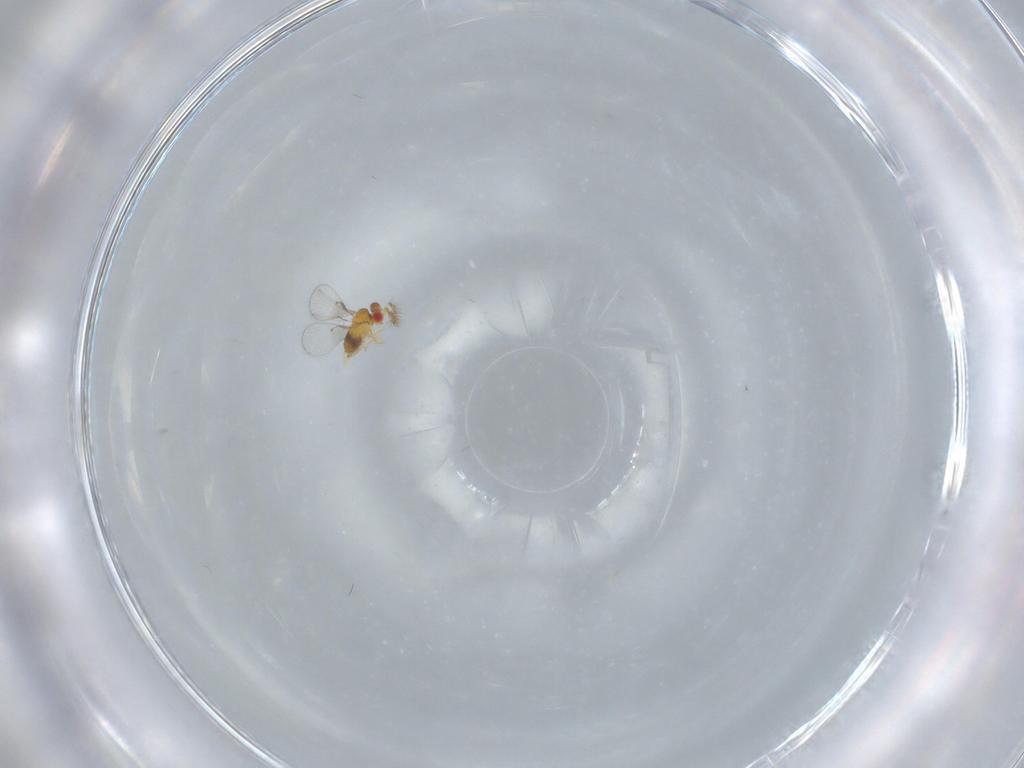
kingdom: Animalia
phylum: Arthropoda
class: Insecta
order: Hymenoptera
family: Trichogrammatidae
